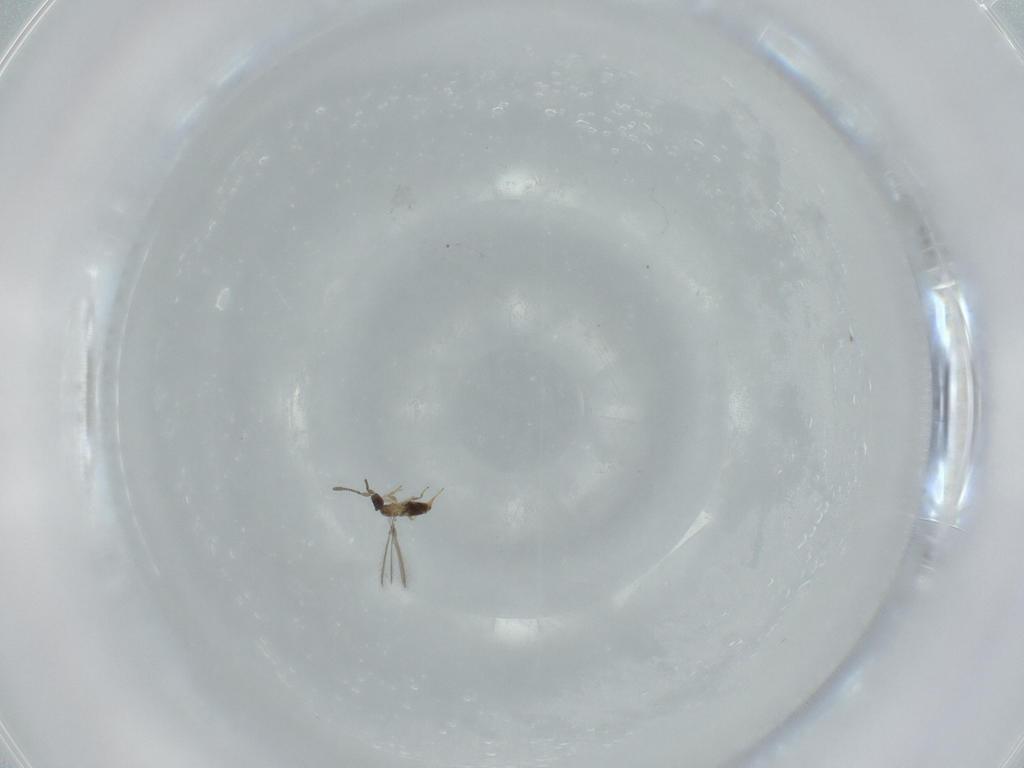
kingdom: Animalia
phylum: Arthropoda
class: Insecta
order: Hymenoptera
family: Mymaridae
